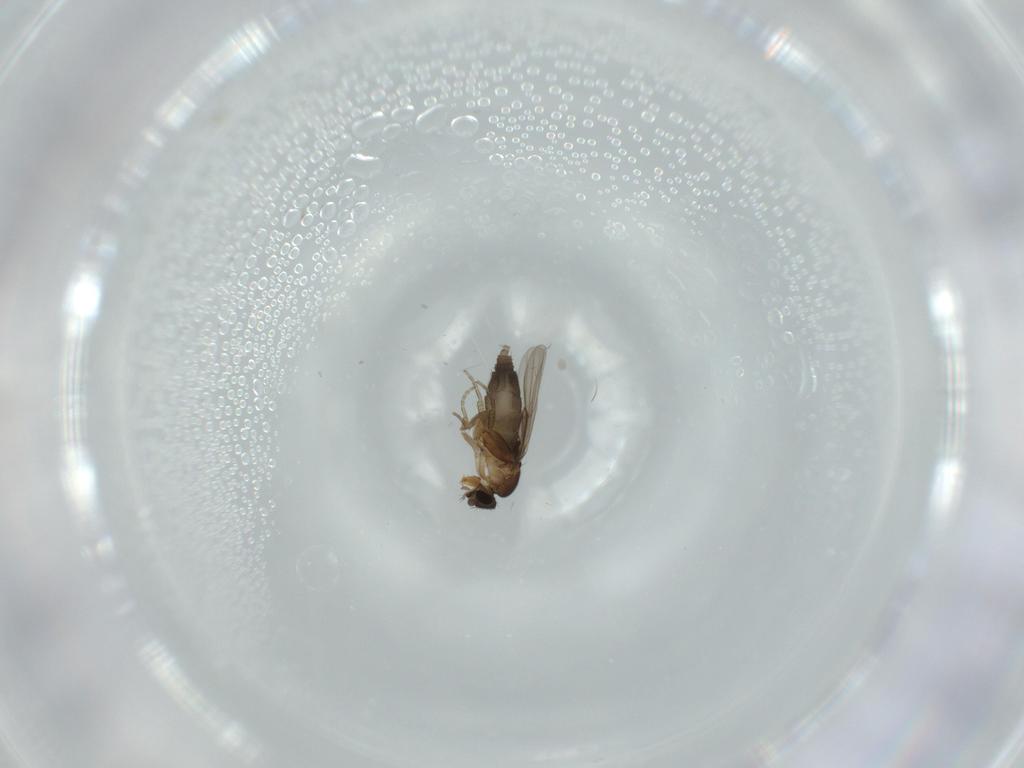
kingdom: Animalia
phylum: Arthropoda
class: Insecta
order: Diptera
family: Phoridae
